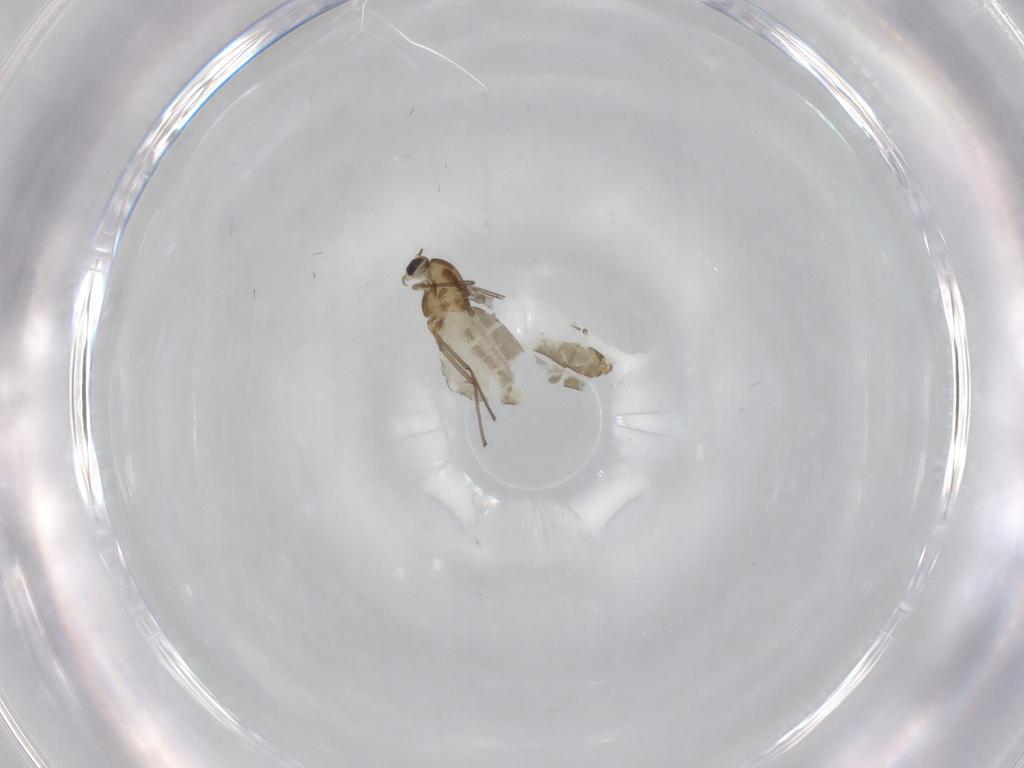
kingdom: Animalia
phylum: Arthropoda
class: Insecta
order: Diptera
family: Chironomidae
